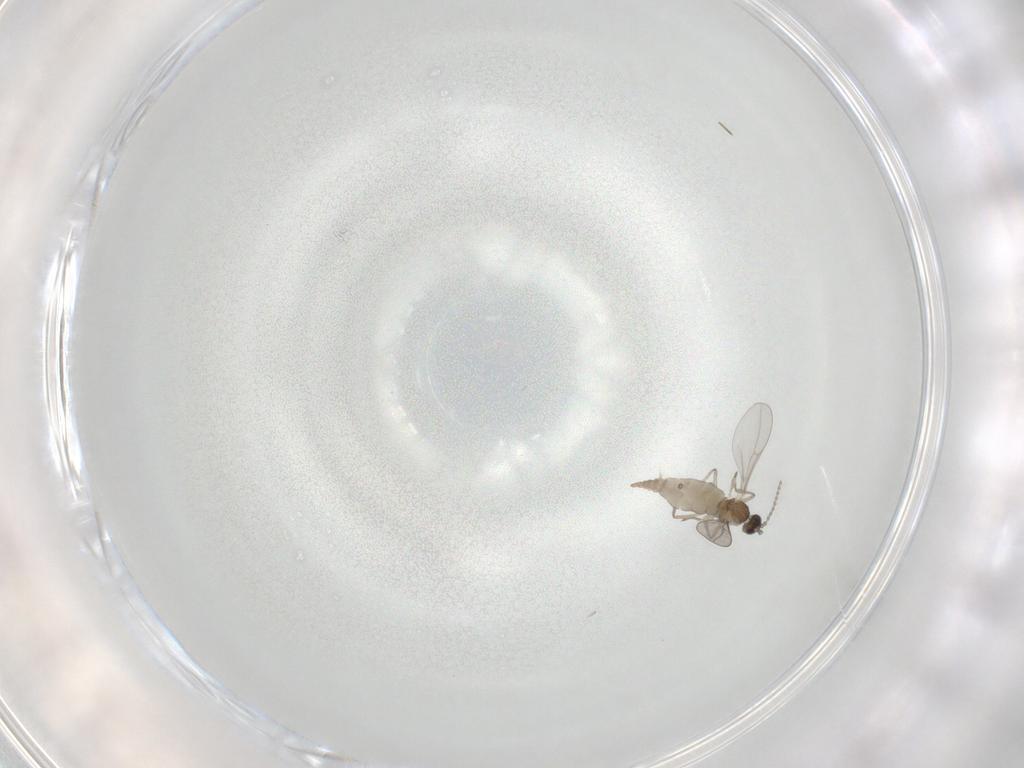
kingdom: Animalia
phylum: Arthropoda
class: Insecta
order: Diptera
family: Cecidomyiidae
